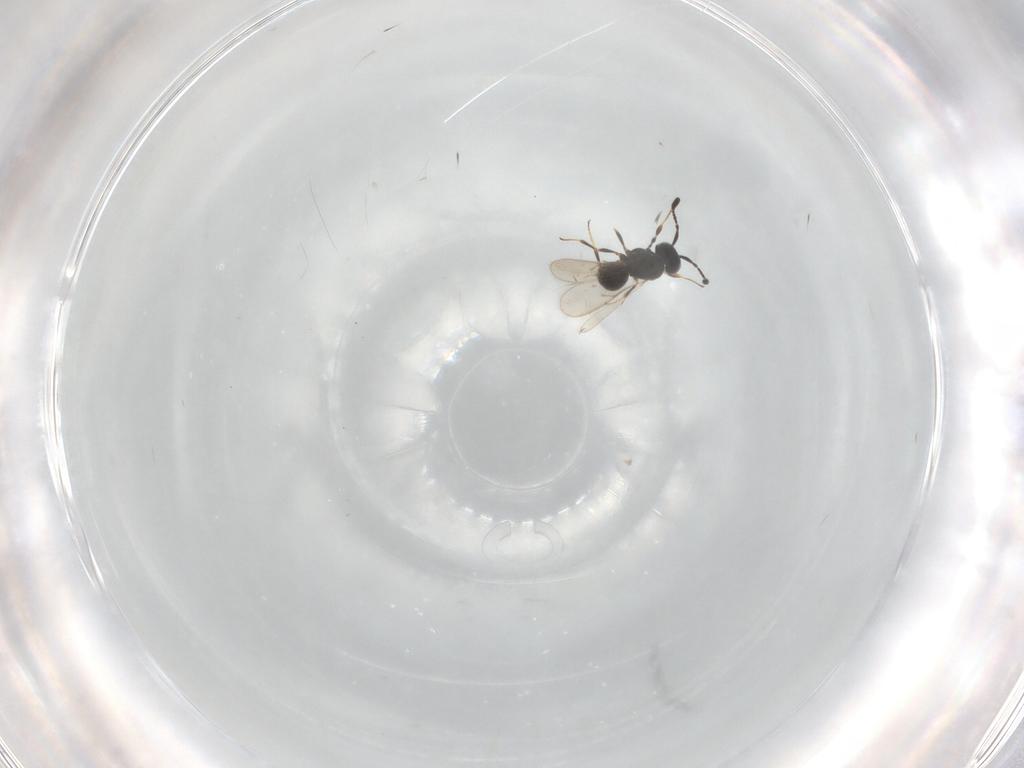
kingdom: Animalia
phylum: Arthropoda
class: Insecta
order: Hymenoptera
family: Scelionidae
